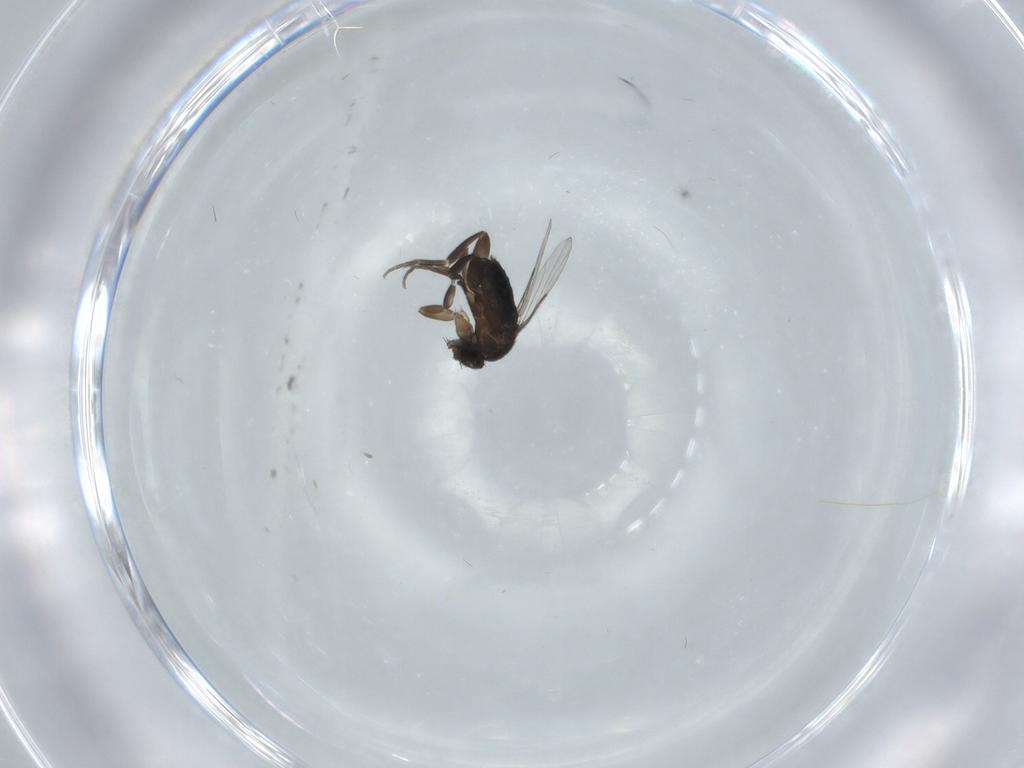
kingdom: Animalia
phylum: Arthropoda
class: Insecta
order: Diptera
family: Phoridae
